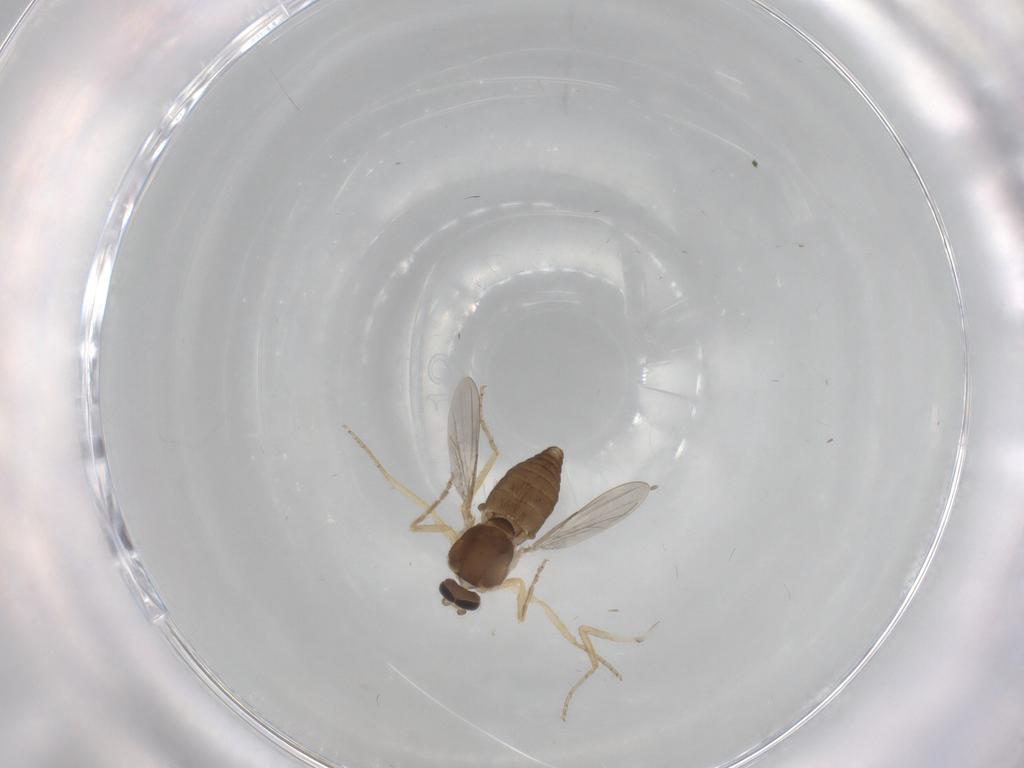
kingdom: Animalia
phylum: Arthropoda
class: Insecta
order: Diptera
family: Ceratopogonidae
